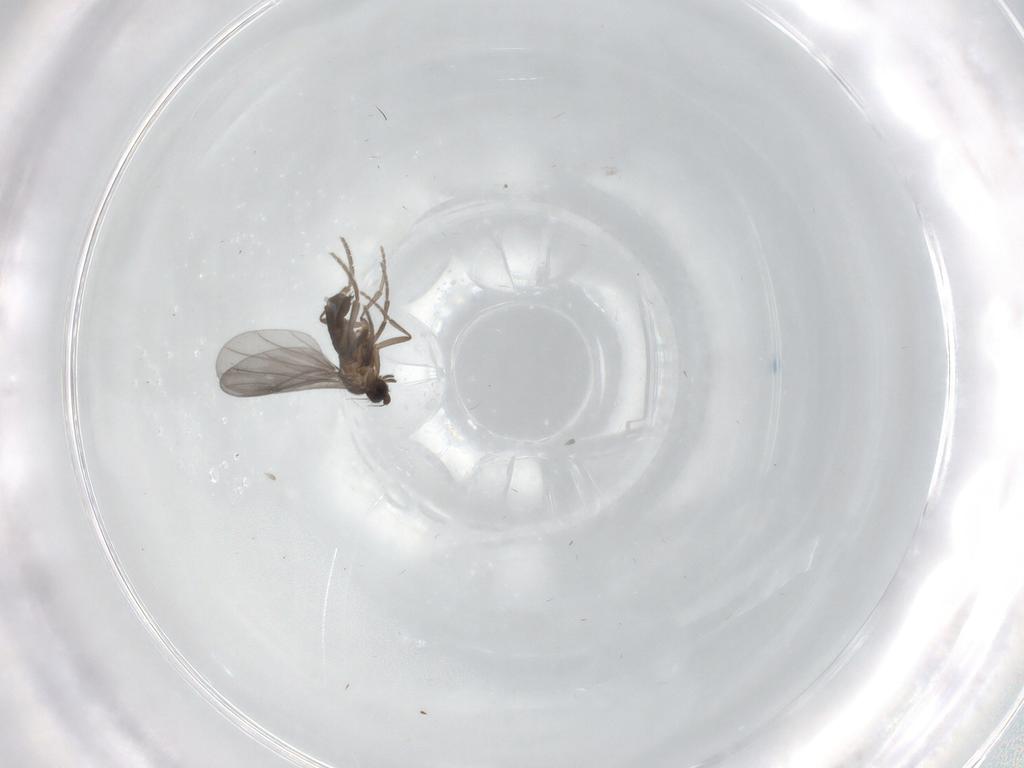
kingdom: Animalia
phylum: Arthropoda
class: Insecta
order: Diptera
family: Phoridae
